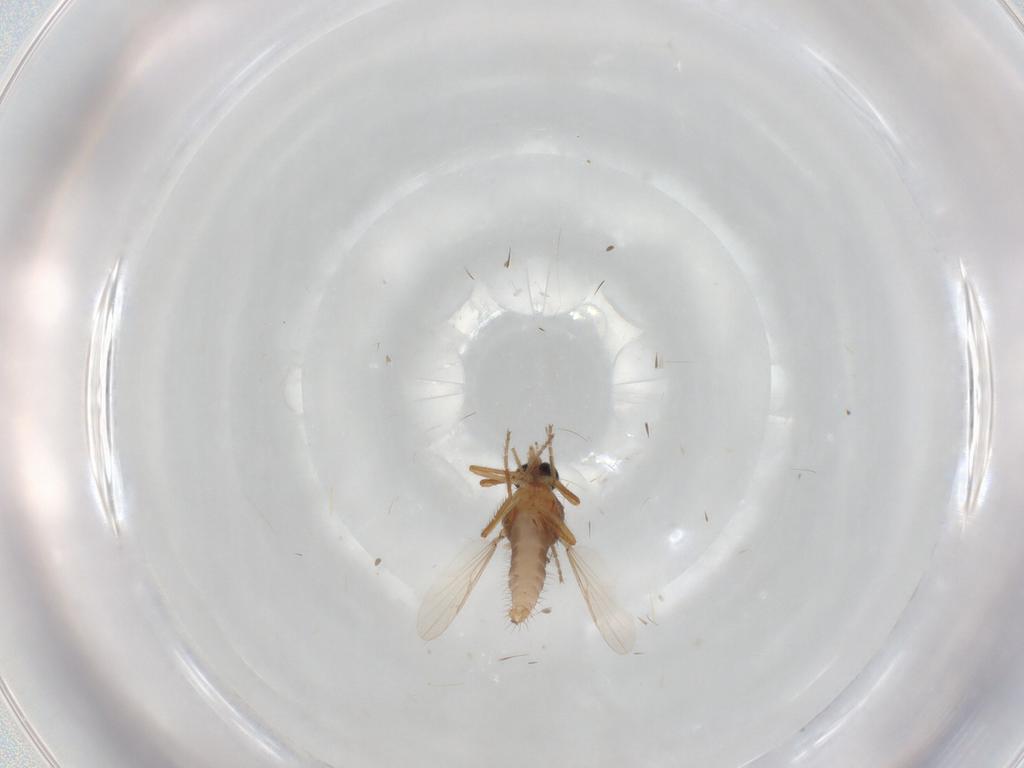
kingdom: Animalia
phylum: Arthropoda
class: Insecta
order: Diptera
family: Ceratopogonidae
